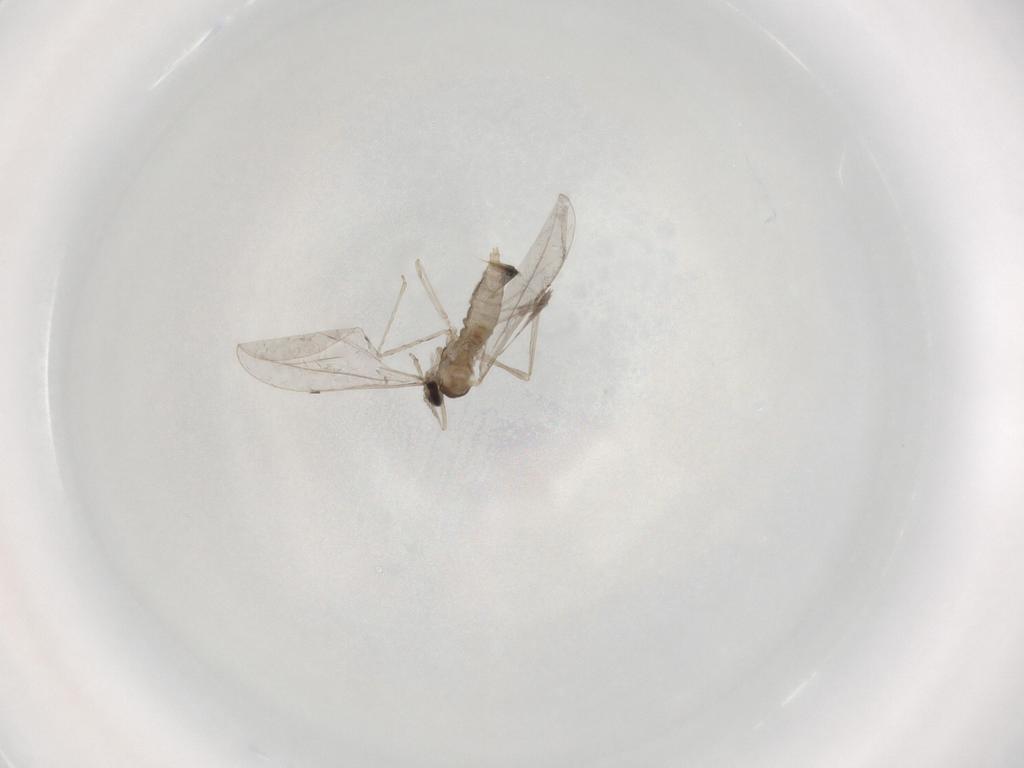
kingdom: Animalia
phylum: Arthropoda
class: Insecta
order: Diptera
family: Cecidomyiidae
